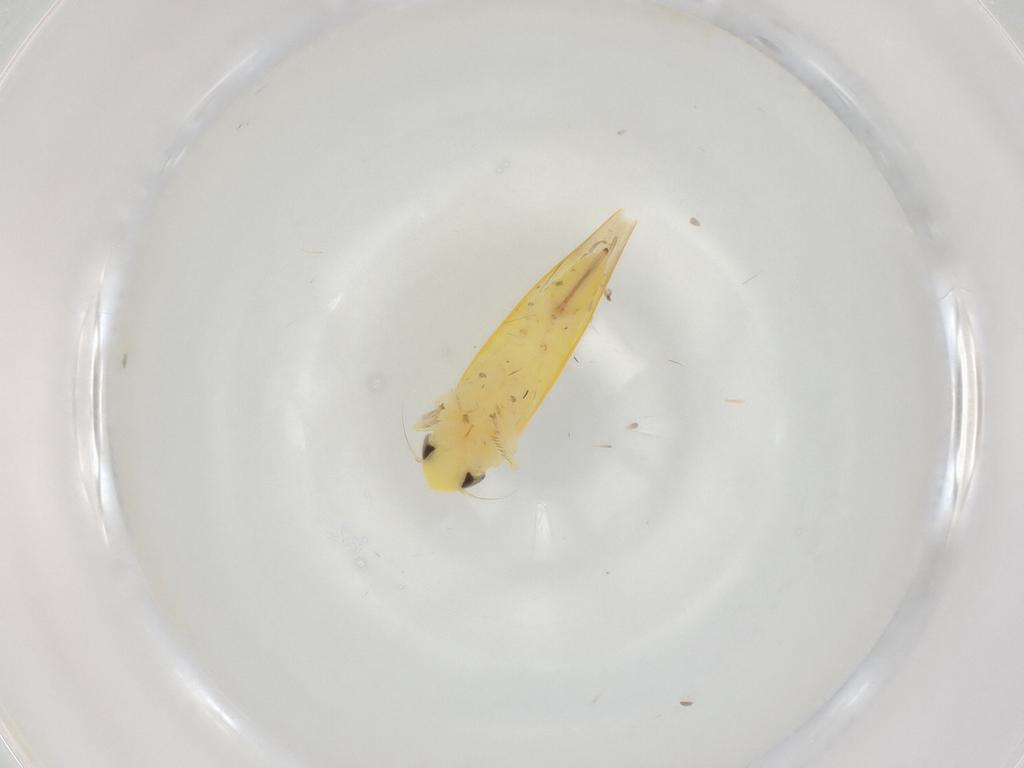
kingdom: Animalia
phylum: Arthropoda
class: Insecta
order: Hemiptera
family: Cicadellidae
